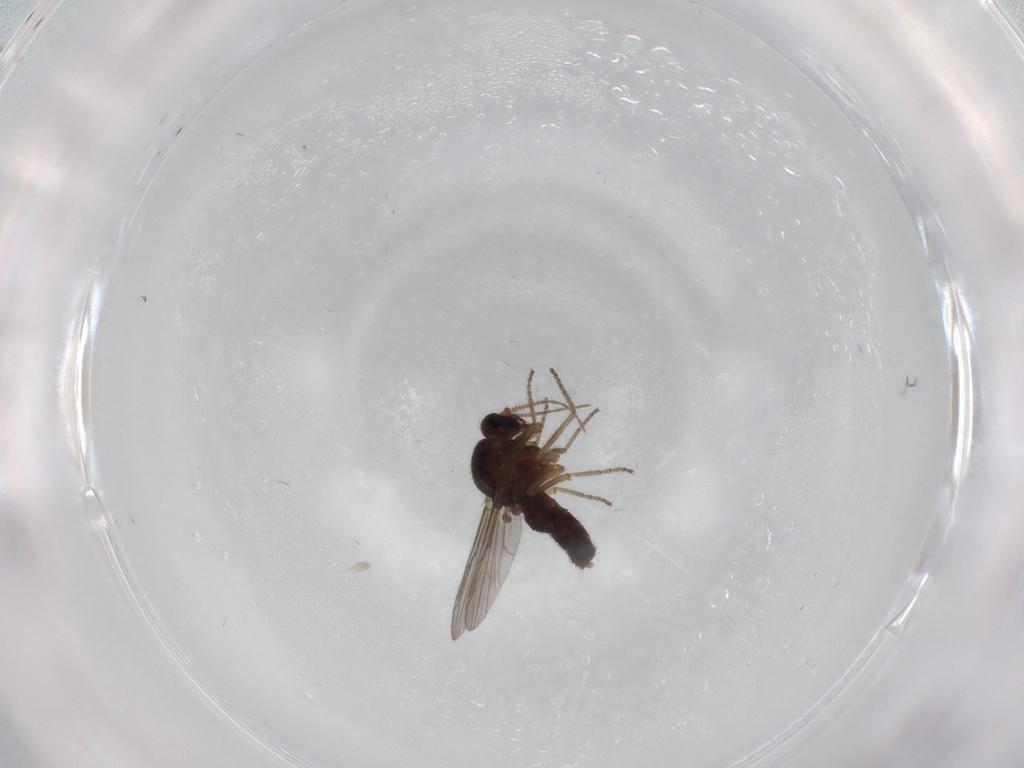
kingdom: Animalia
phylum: Arthropoda
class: Insecta
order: Diptera
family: Ceratopogonidae
